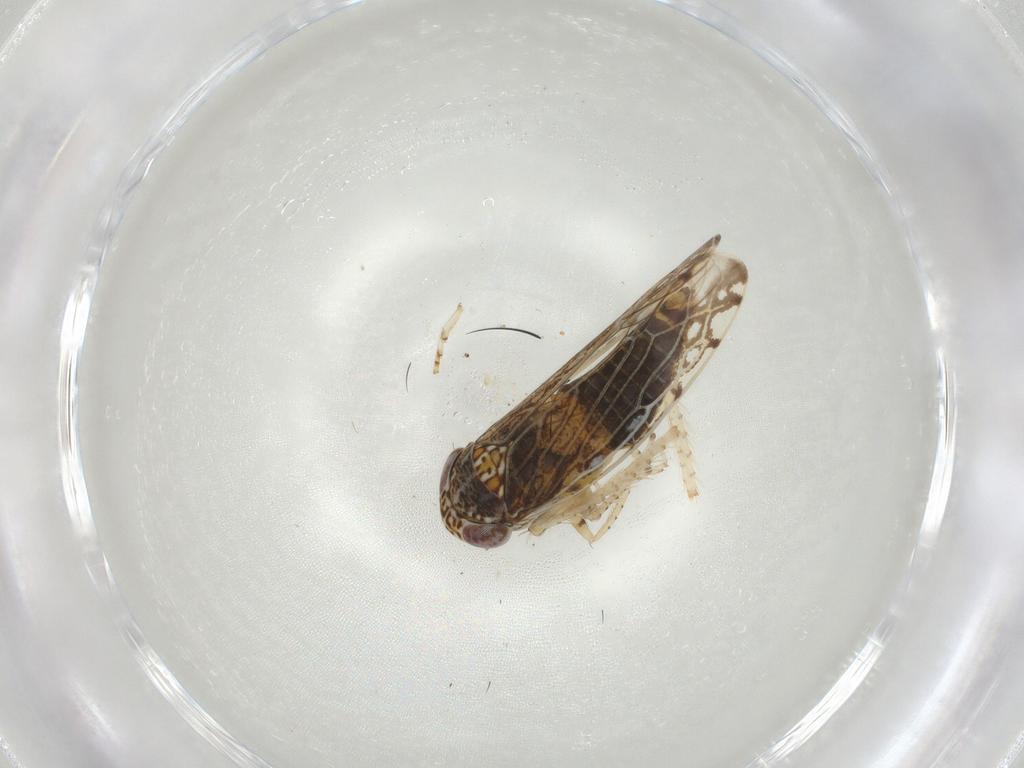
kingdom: Animalia
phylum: Arthropoda
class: Insecta
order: Hemiptera
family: Cicadellidae
